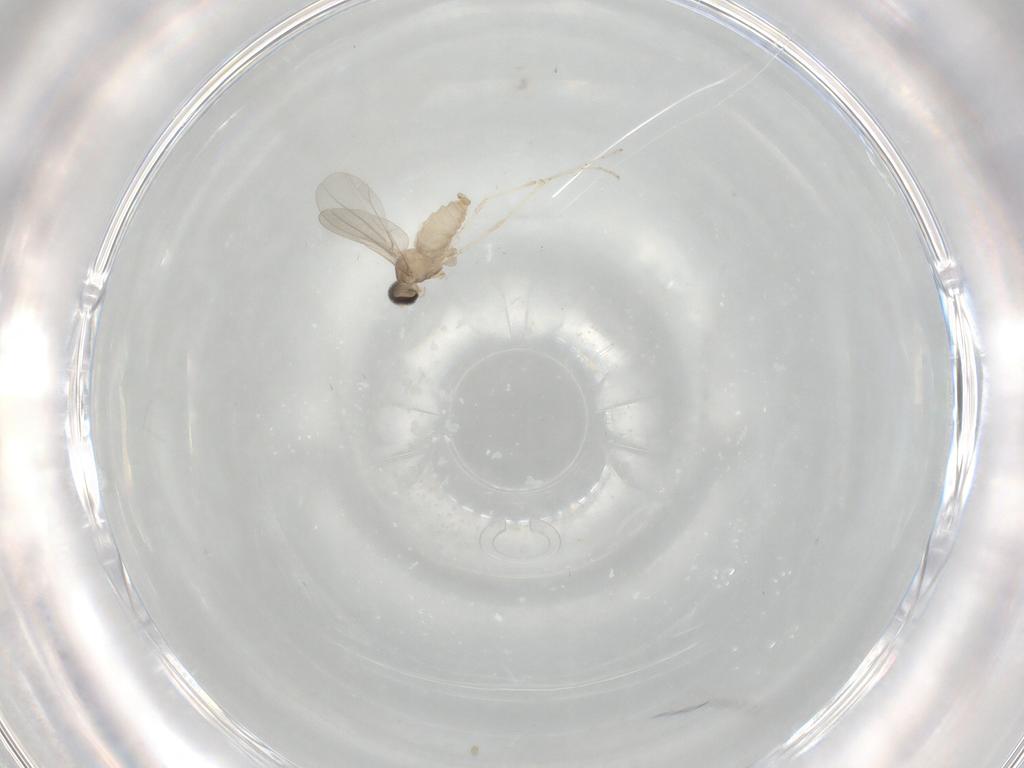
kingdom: Animalia
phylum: Arthropoda
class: Insecta
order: Diptera
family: Cecidomyiidae
